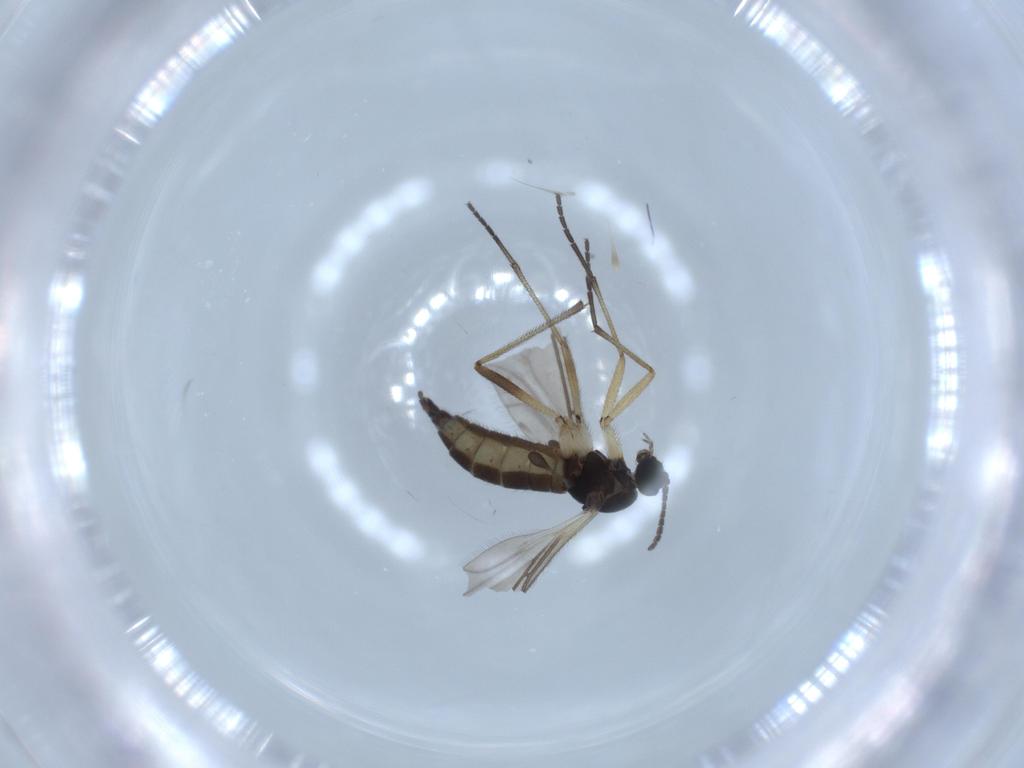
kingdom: Animalia
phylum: Arthropoda
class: Insecta
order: Diptera
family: Sciaridae
